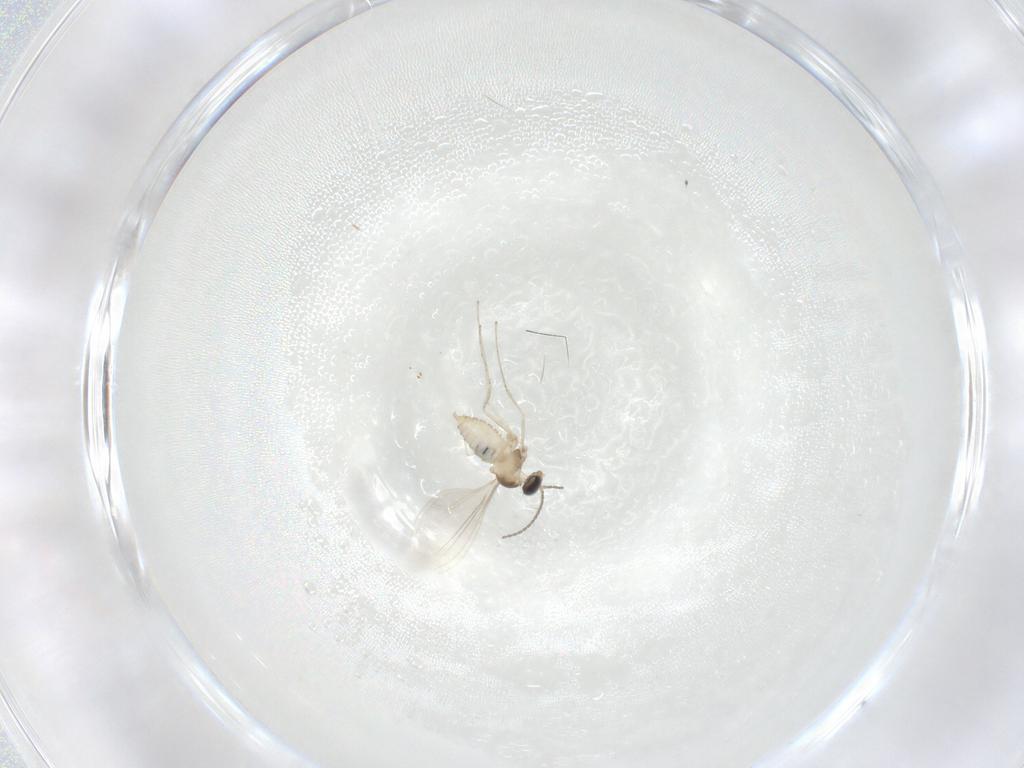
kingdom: Animalia
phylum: Arthropoda
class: Insecta
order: Diptera
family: Cecidomyiidae
